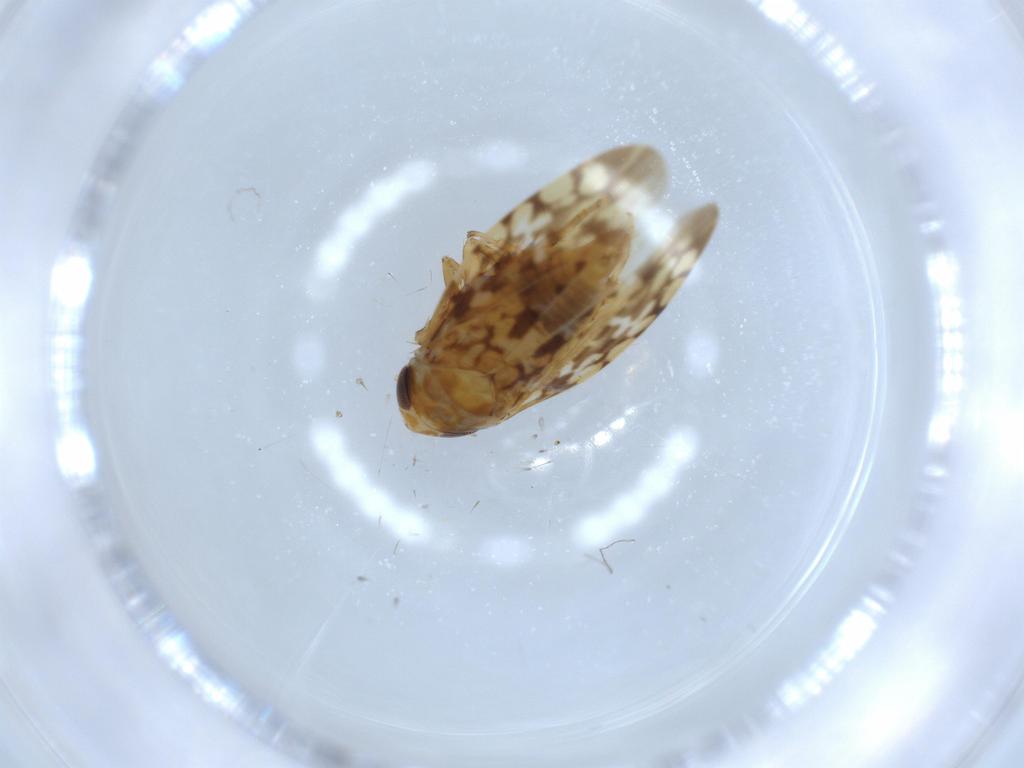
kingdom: Animalia
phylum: Arthropoda
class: Insecta
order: Hemiptera
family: Cicadellidae
